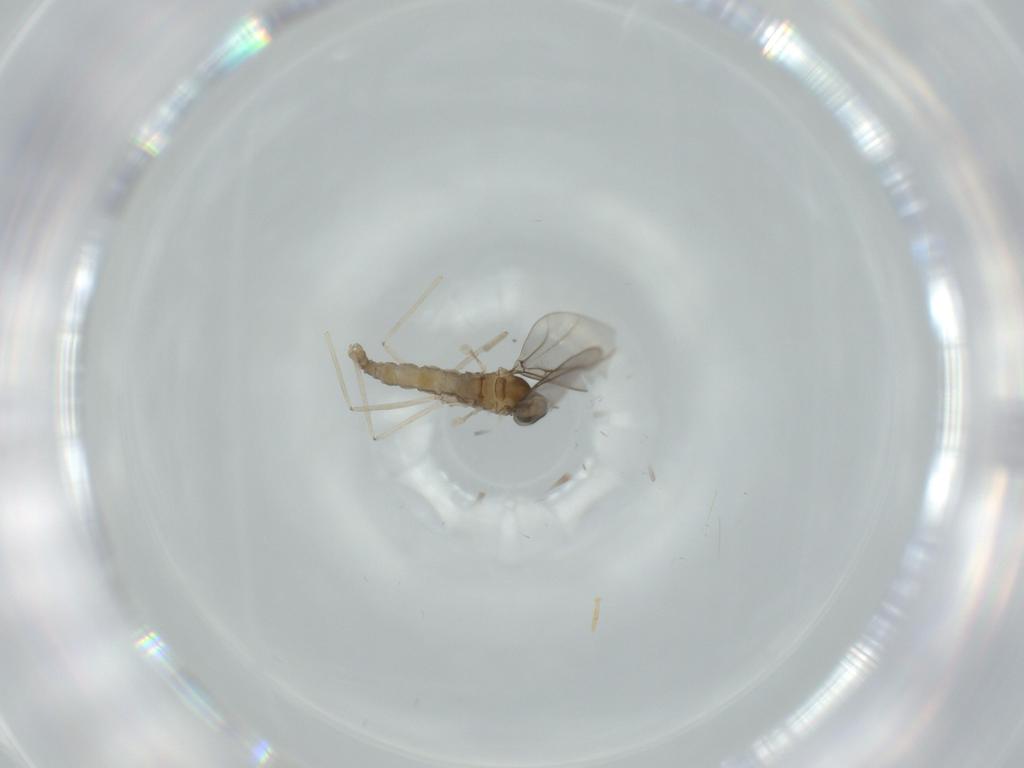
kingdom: Animalia
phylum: Arthropoda
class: Insecta
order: Diptera
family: Cecidomyiidae
